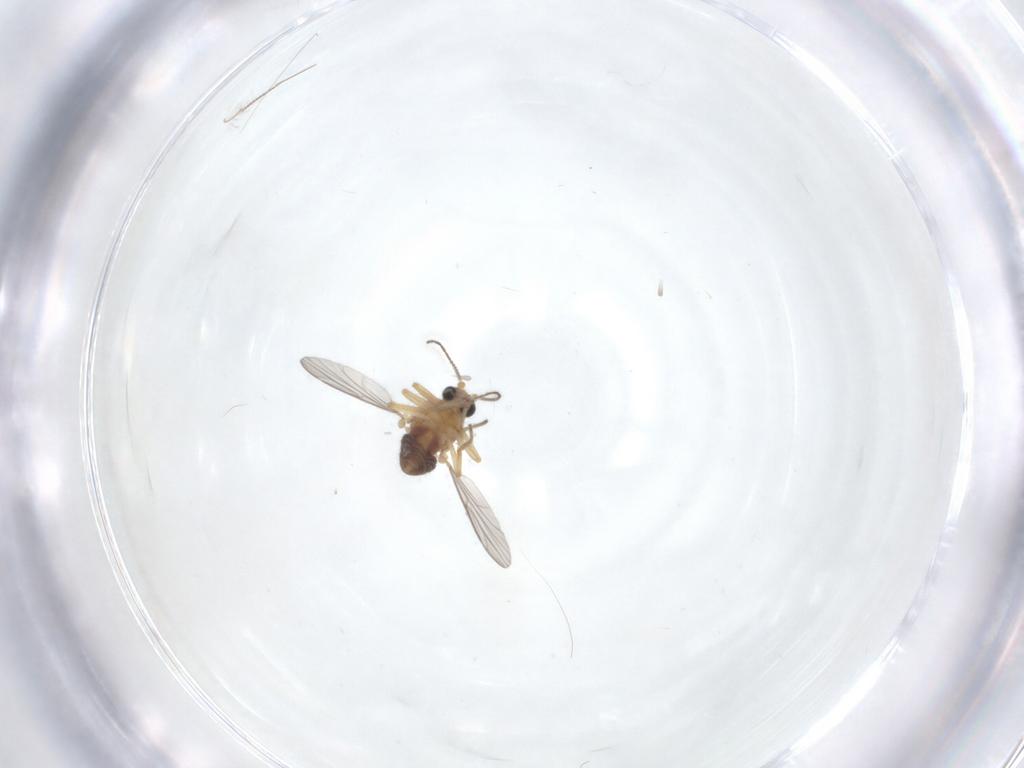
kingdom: Animalia
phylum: Arthropoda
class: Insecta
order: Diptera
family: Ceratopogonidae
